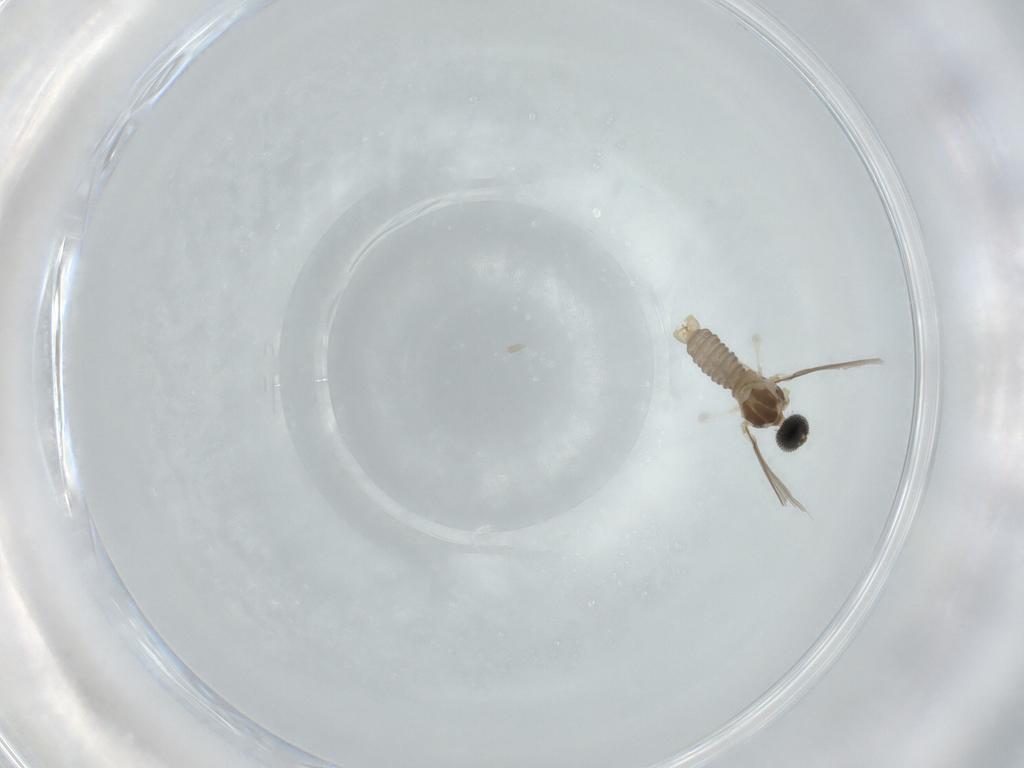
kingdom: Animalia
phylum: Arthropoda
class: Insecta
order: Diptera
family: Cecidomyiidae
